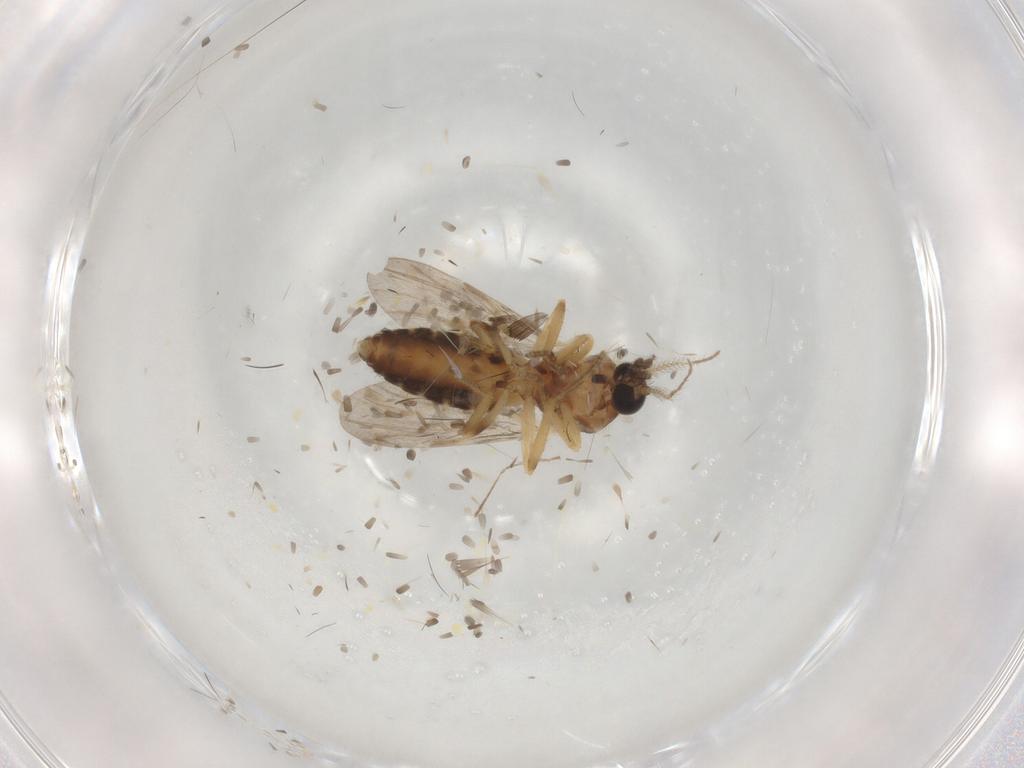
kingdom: Animalia
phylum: Arthropoda
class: Insecta
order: Diptera
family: Ceratopogonidae
